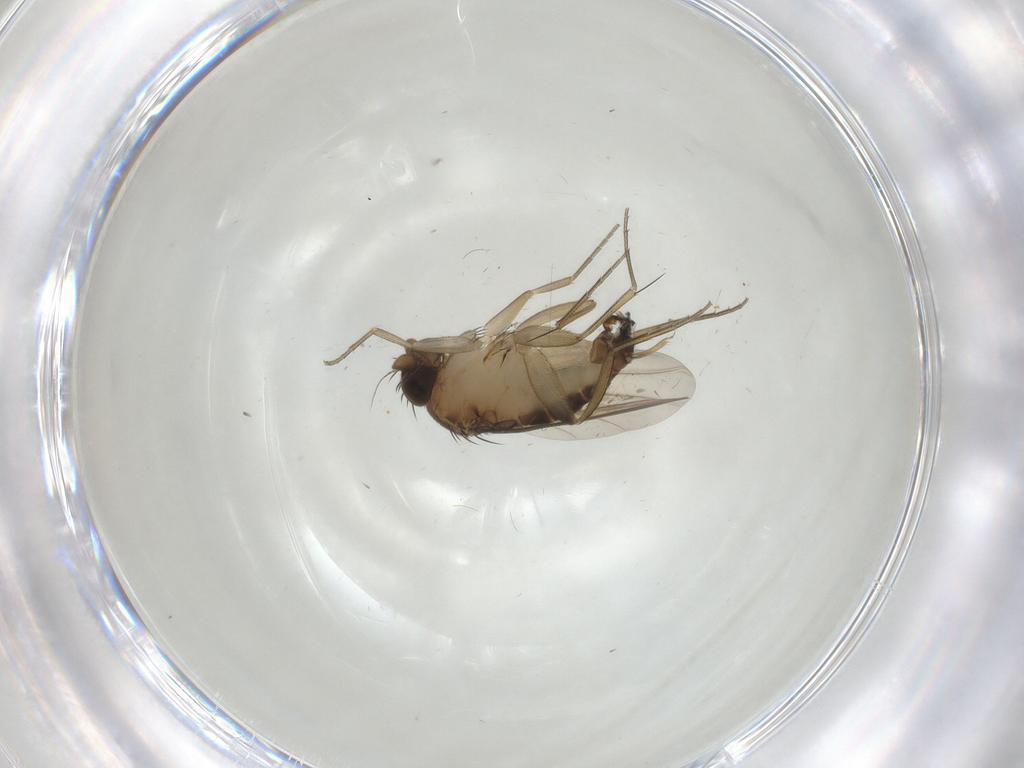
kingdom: Animalia
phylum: Arthropoda
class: Insecta
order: Diptera
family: Phoridae
